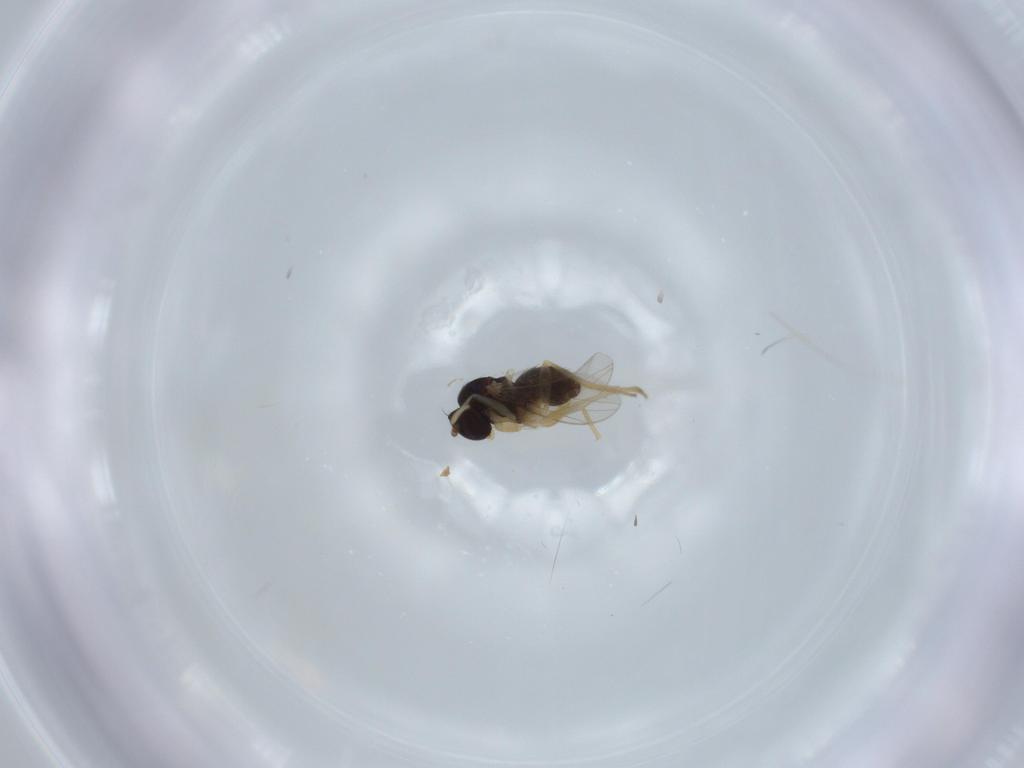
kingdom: Animalia
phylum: Arthropoda
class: Insecta
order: Diptera
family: Dolichopodidae
